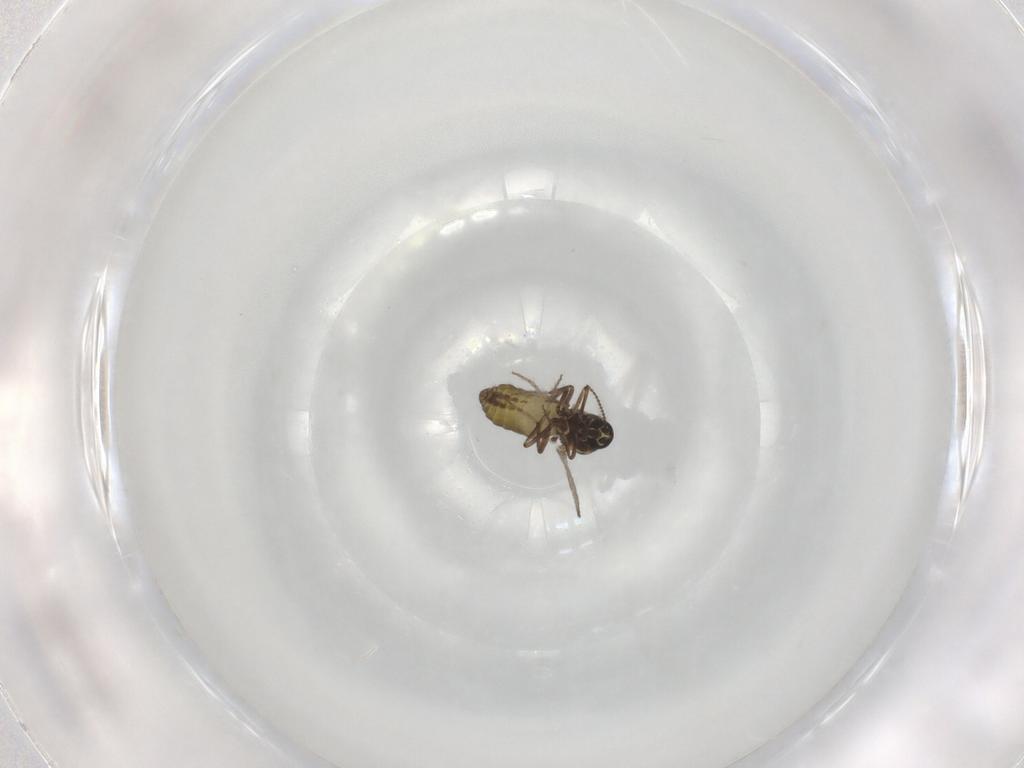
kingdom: Animalia
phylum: Arthropoda
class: Insecta
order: Diptera
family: Ceratopogonidae
